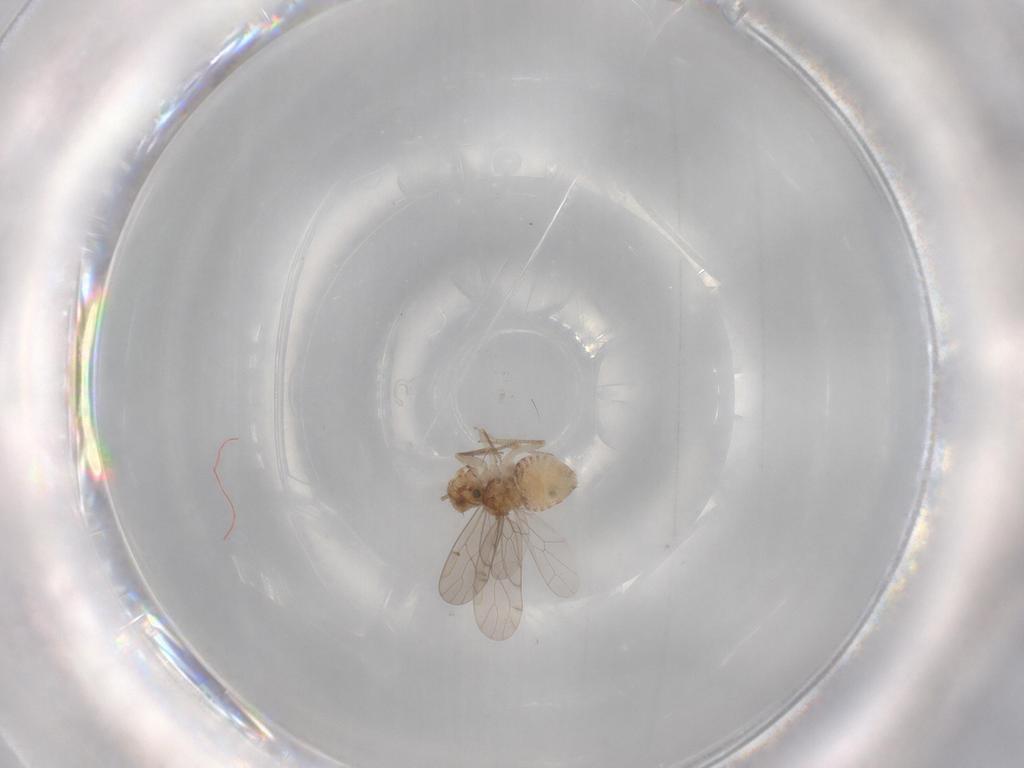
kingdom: Animalia
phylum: Arthropoda
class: Insecta
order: Psocodea
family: Ectopsocidae
